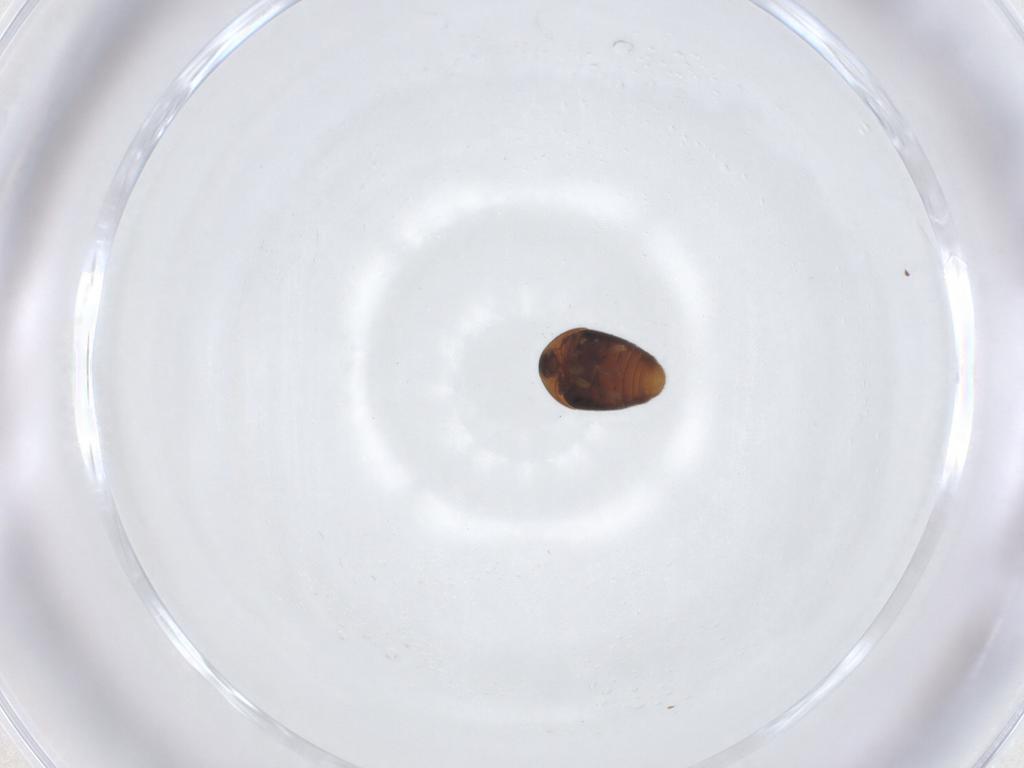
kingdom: Animalia
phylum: Arthropoda
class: Insecta
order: Coleoptera
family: Corylophidae
